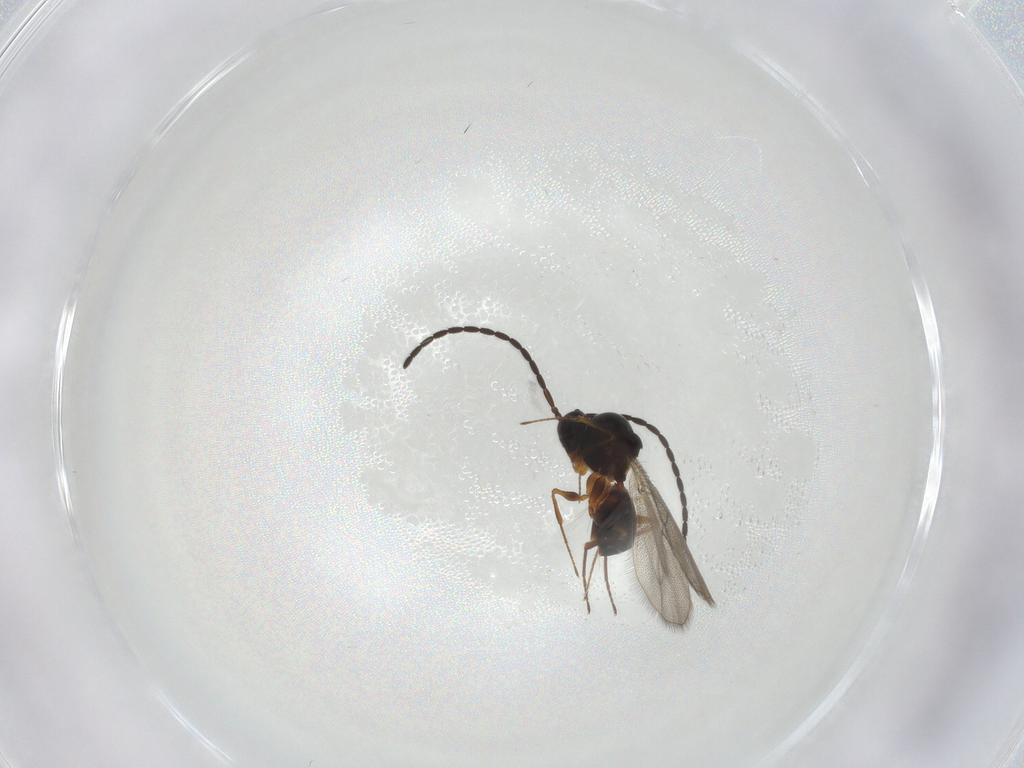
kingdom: Animalia
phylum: Arthropoda
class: Insecta
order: Hymenoptera
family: Figitidae
